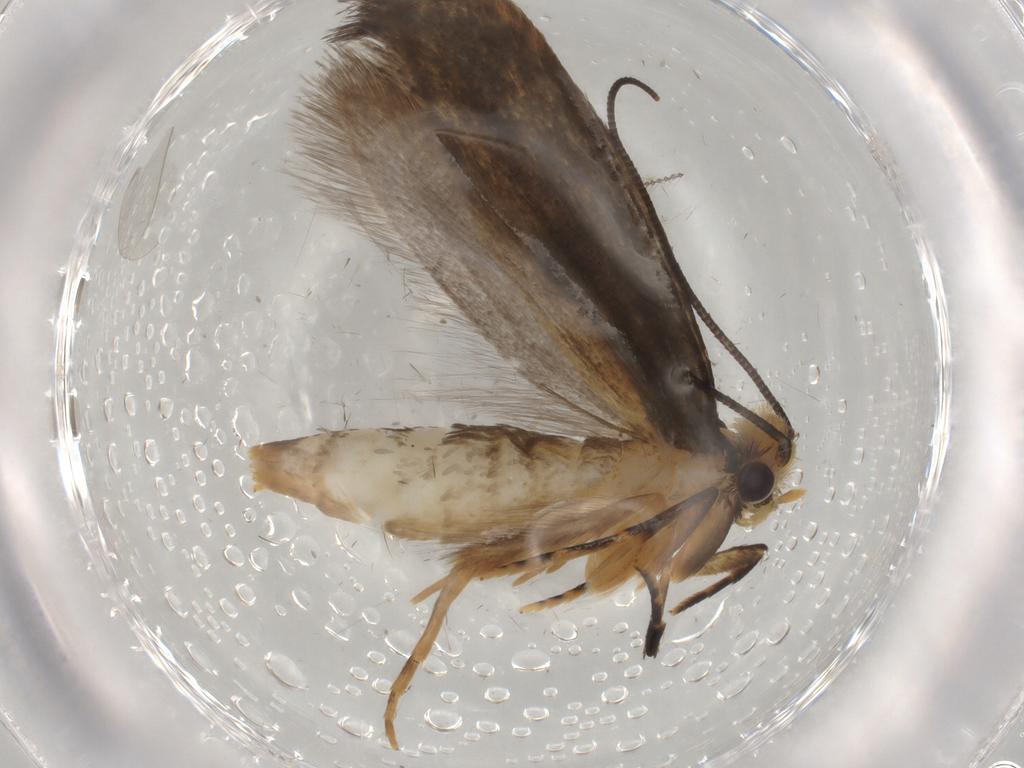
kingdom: Animalia
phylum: Arthropoda
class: Insecta
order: Lepidoptera
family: Tineidae
